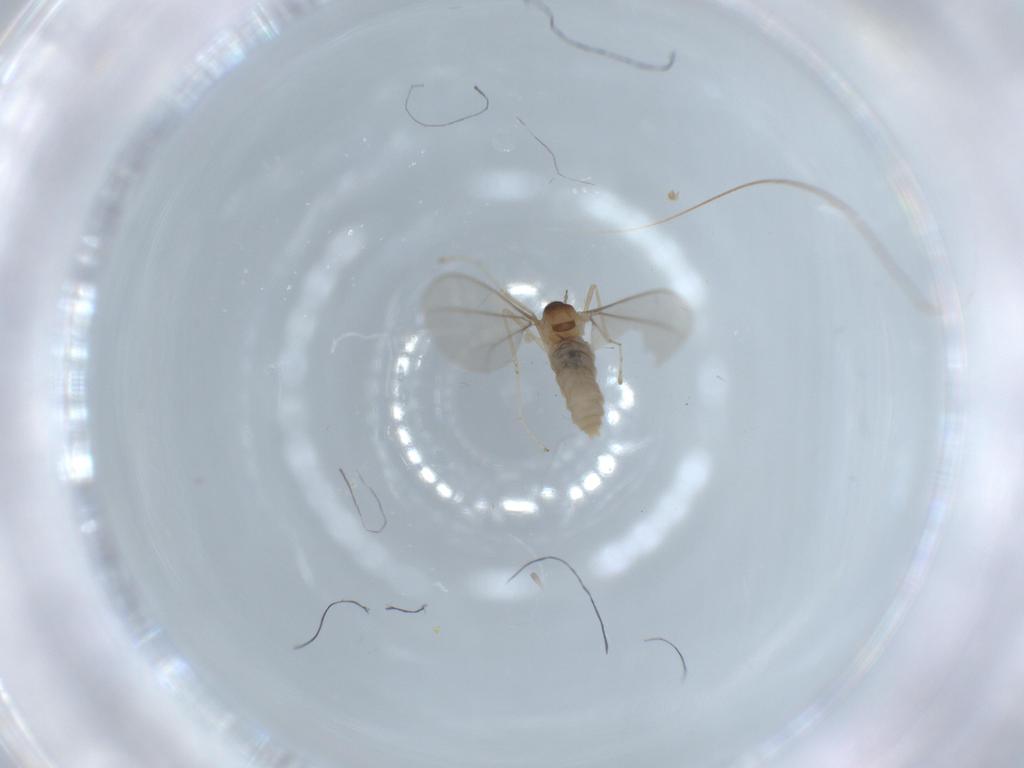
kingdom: Animalia
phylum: Arthropoda
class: Insecta
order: Diptera
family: Cecidomyiidae
